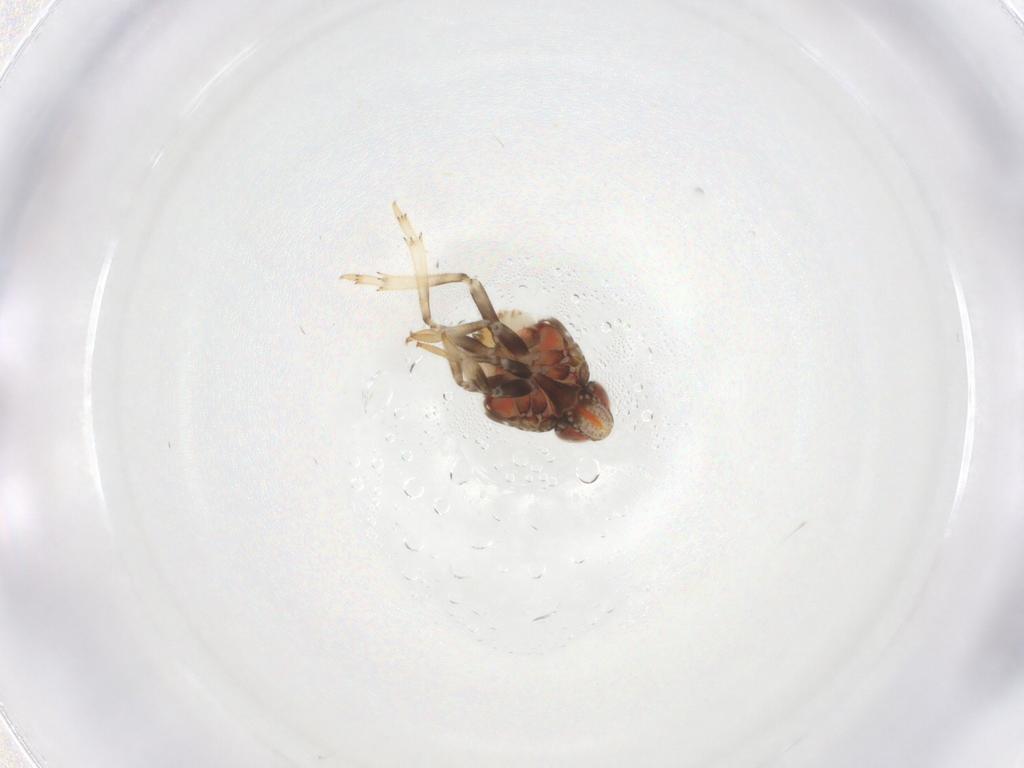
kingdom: Animalia
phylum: Arthropoda
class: Insecta
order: Hemiptera
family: Issidae
